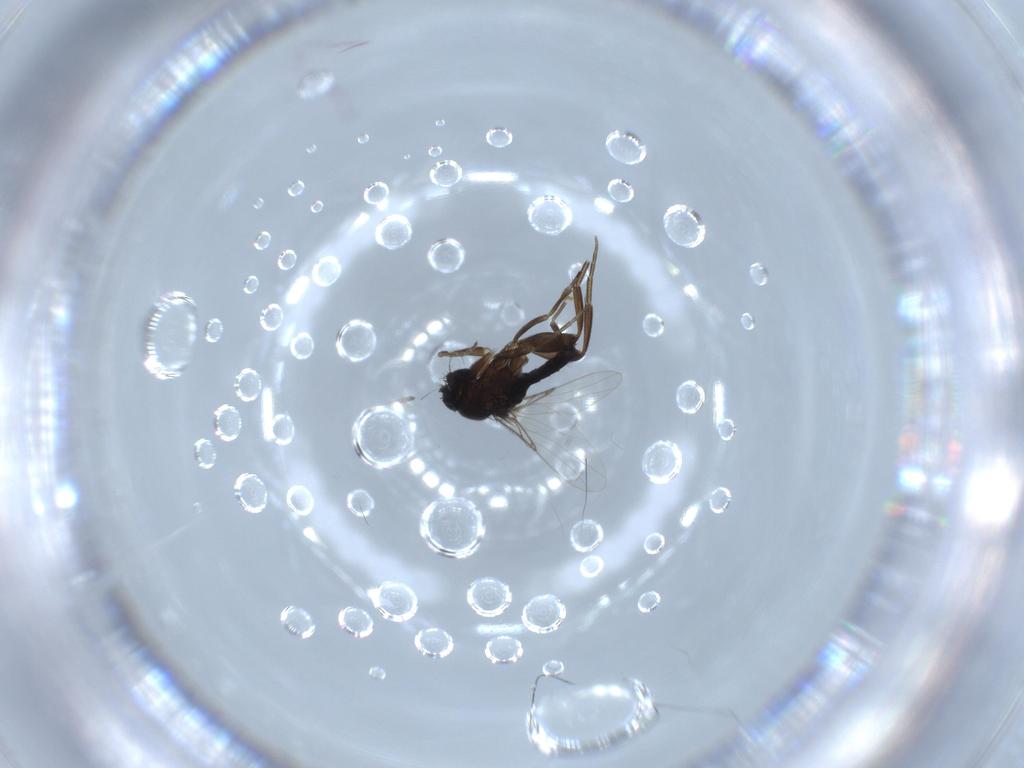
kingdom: Animalia
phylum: Arthropoda
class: Insecta
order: Diptera
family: Phoridae
